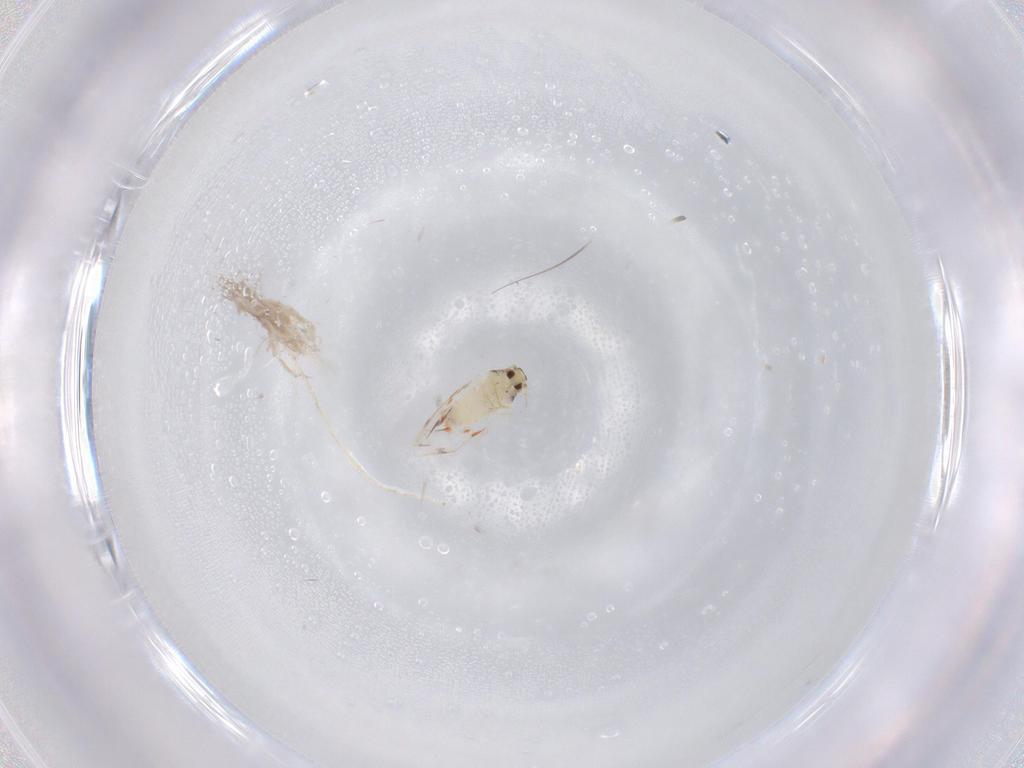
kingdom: Animalia
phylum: Arthropoda
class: Insecta
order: Hemiptera
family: Aleyrodidae
